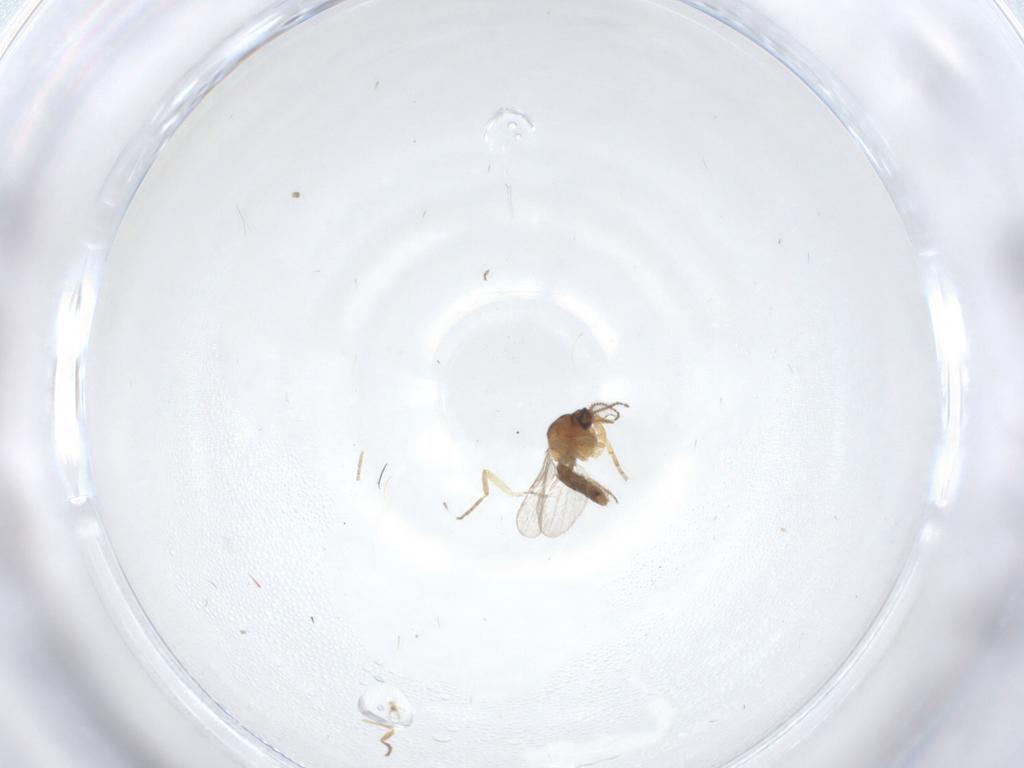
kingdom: Animalia
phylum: Arthropoda
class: Insecta
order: Diptera
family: Ceratopogonidae
